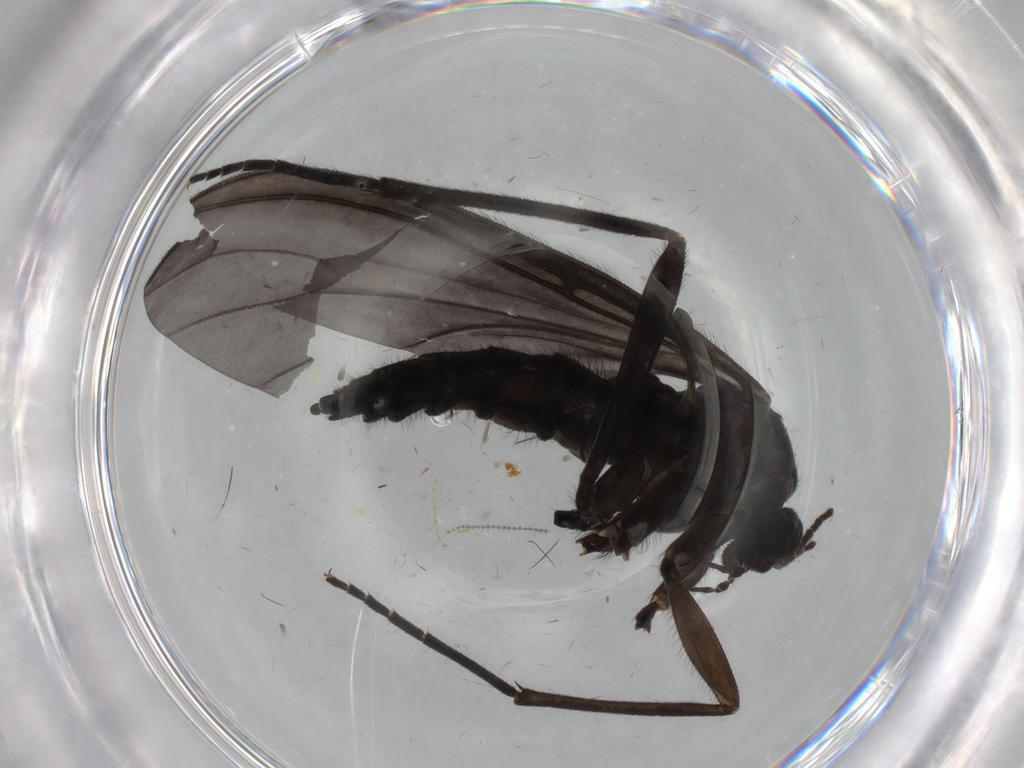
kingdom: Animalia
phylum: Arthropoda
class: Insecta
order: Diptera
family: Sciaridae
